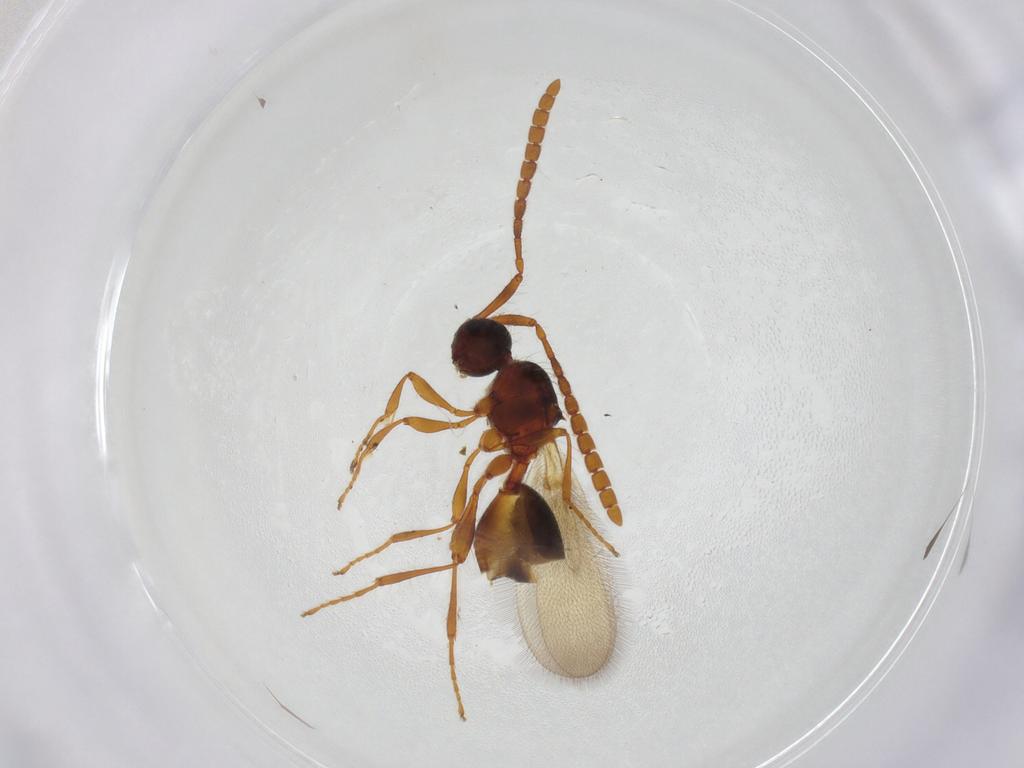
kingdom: Animalia
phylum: Arthropoda
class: Insecta
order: Hymenoptera
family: Diapriidae
